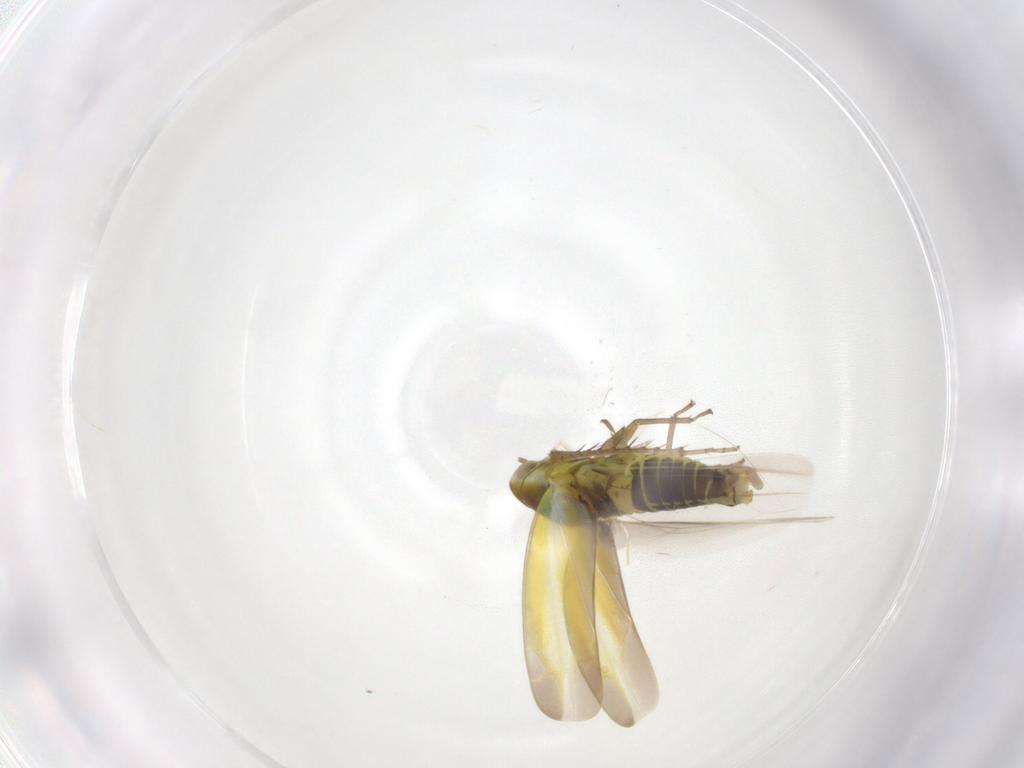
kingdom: Animalia
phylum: Arthropoda
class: Insecta
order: Hemiptera
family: Cicadellidae
